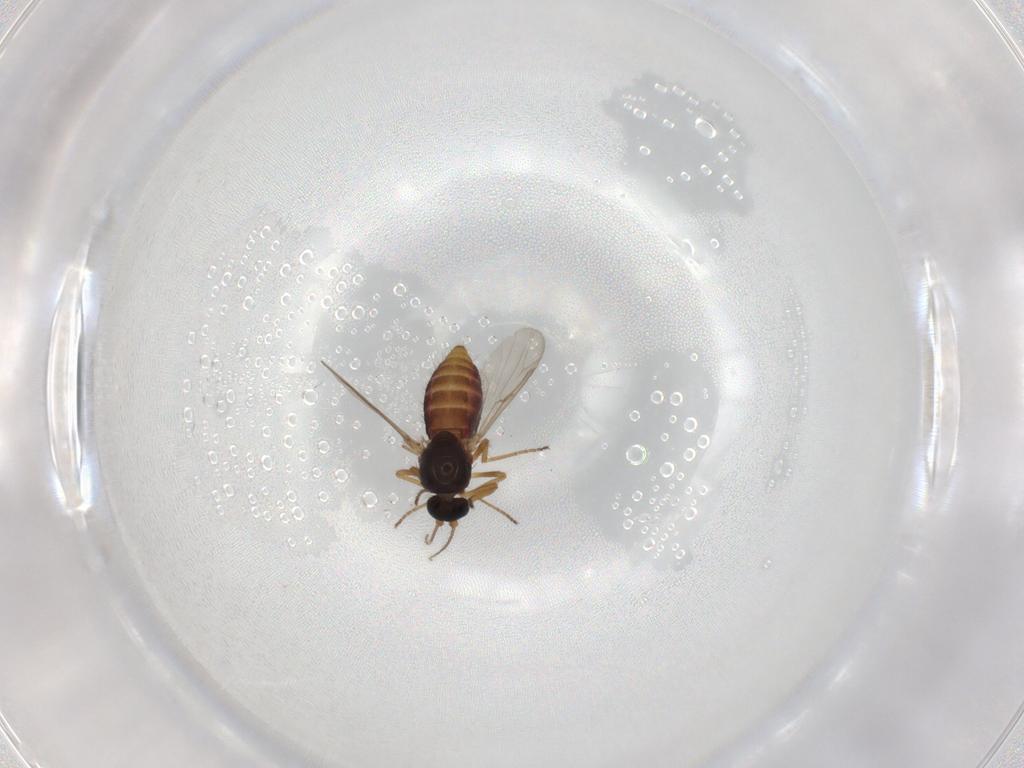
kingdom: Animalia
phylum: Arthropoda
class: Insecta
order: Diptera
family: Ceratopogonidae
